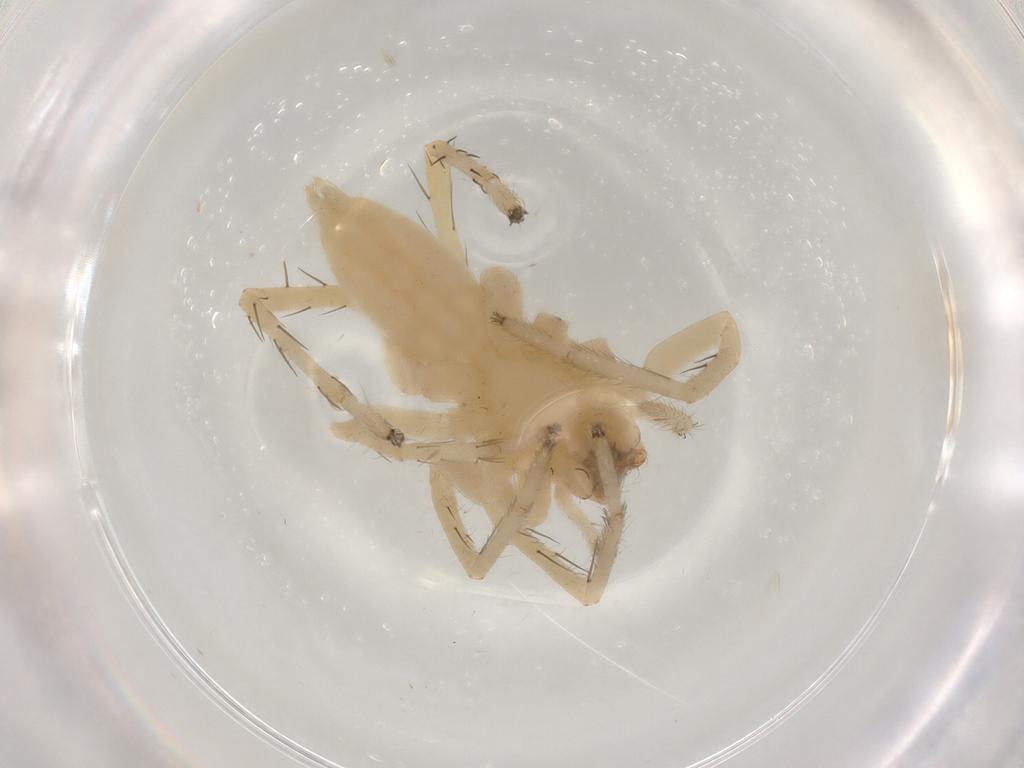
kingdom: Animalia
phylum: Arthropoda
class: Arachnida
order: Araneae
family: Anyphaenidae
